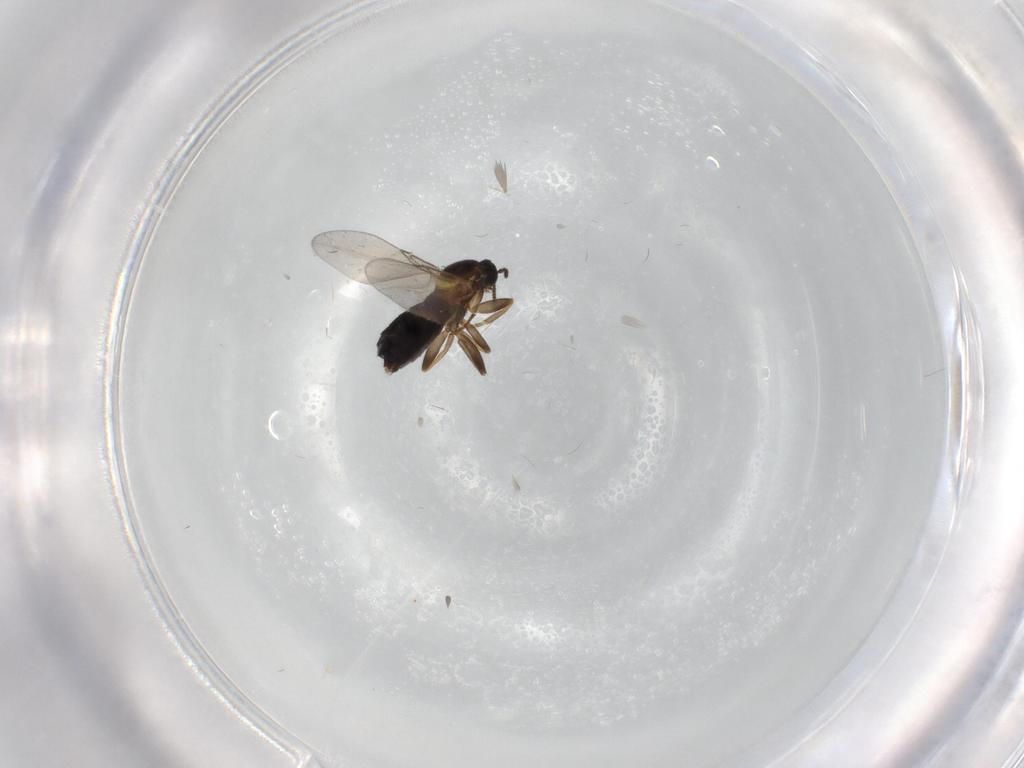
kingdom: Animalia
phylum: Arthropoda
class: Insecta
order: Diptera
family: Scatopsidae
